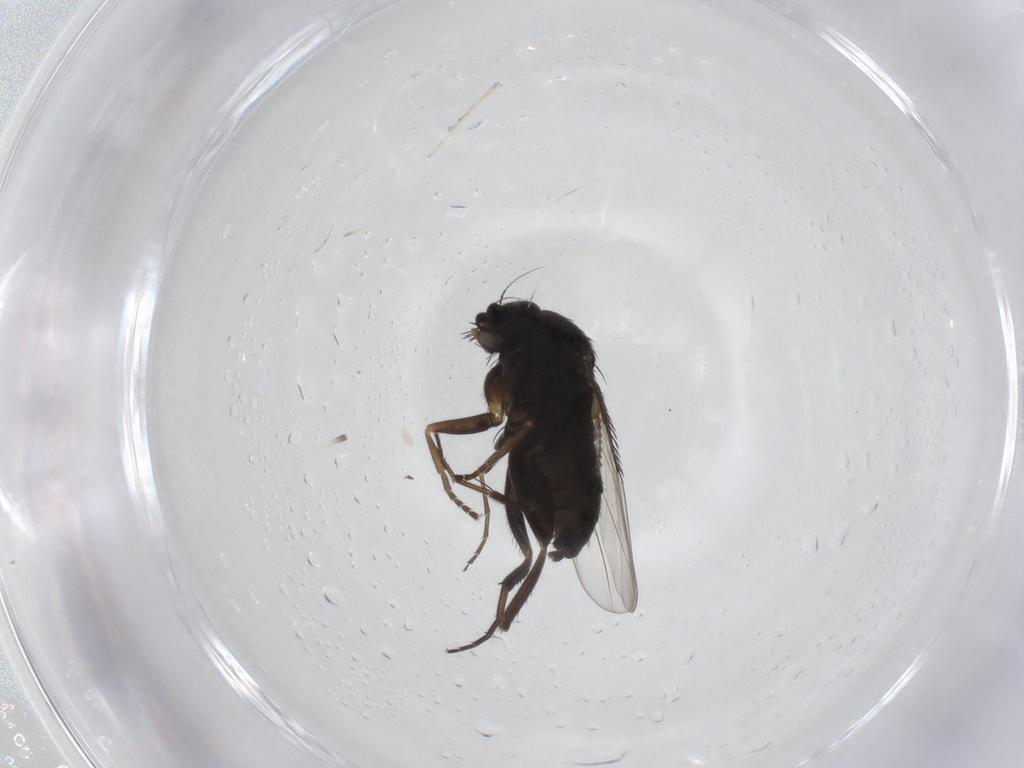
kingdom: Animalia
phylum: Arthropoda
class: Insecta
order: Diptera
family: Phoridae
